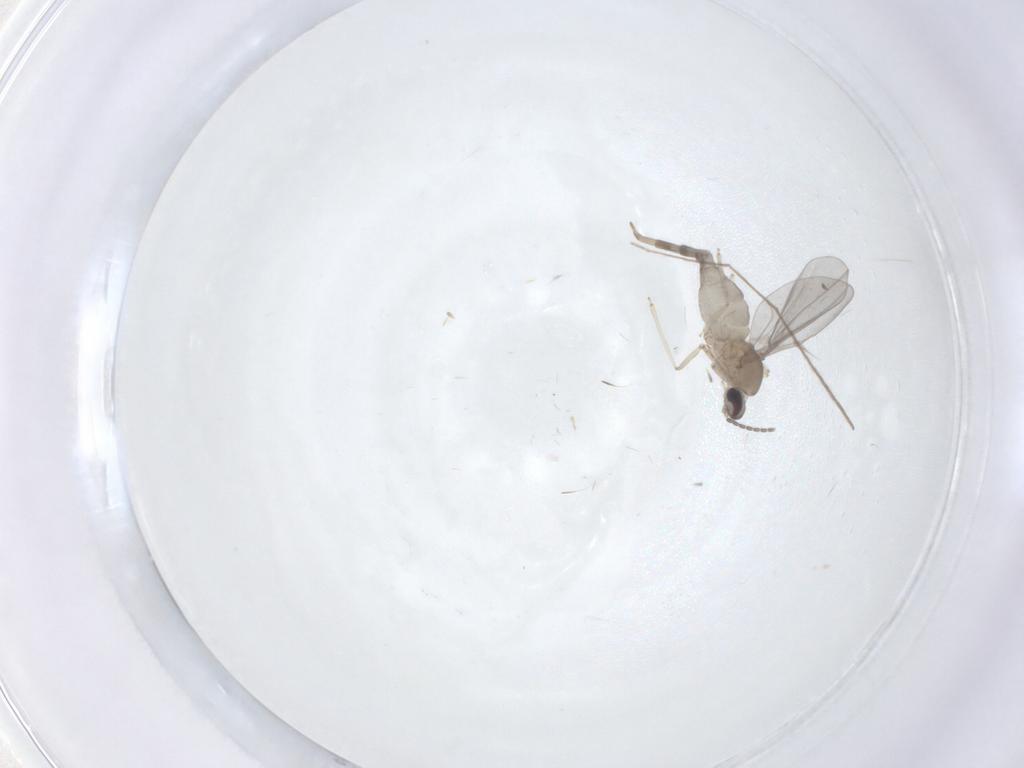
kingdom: Animalia
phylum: Arthropoda
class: Insecta
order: Diptera
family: Cecidomyiidae
